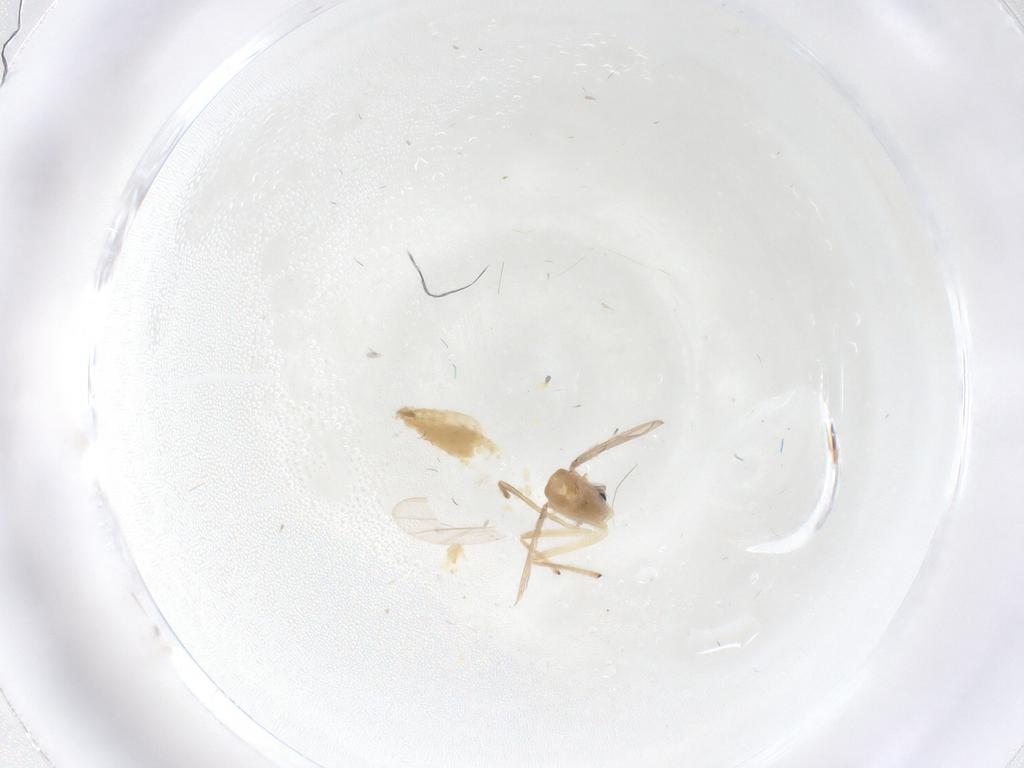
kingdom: Animalia
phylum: Arthropoda
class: Insecta
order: Diptera
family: Cecidomyiidae
